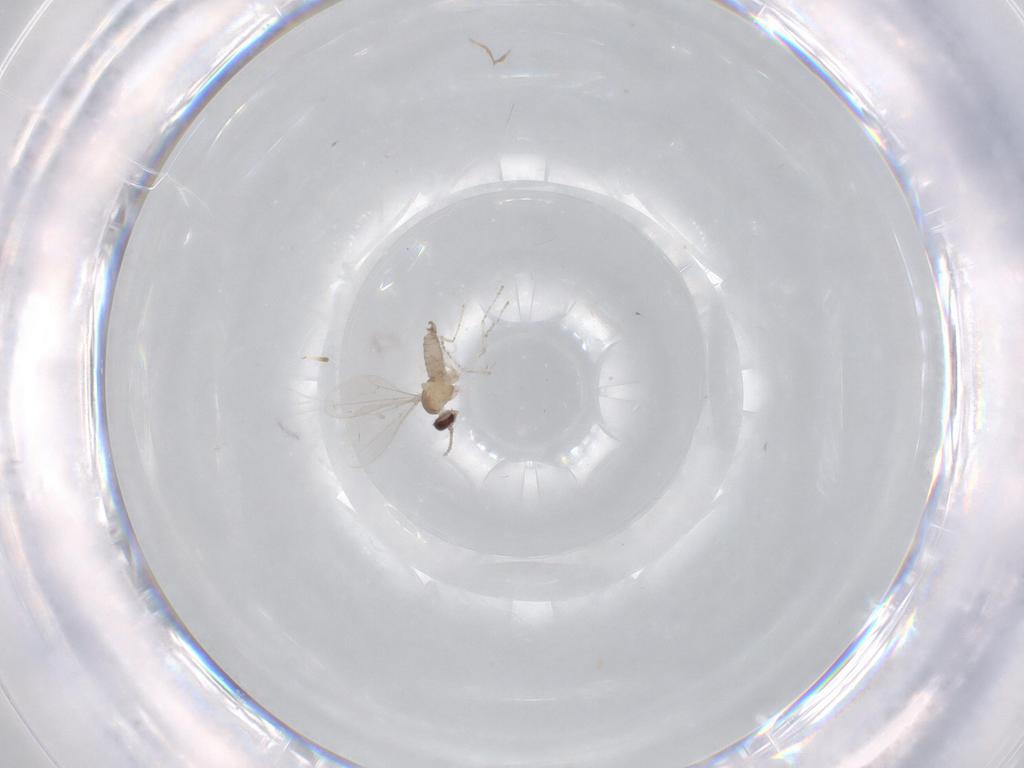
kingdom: Animalia
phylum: Arthropoda
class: Insecta
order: Diptera
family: Cecidomyiidae
